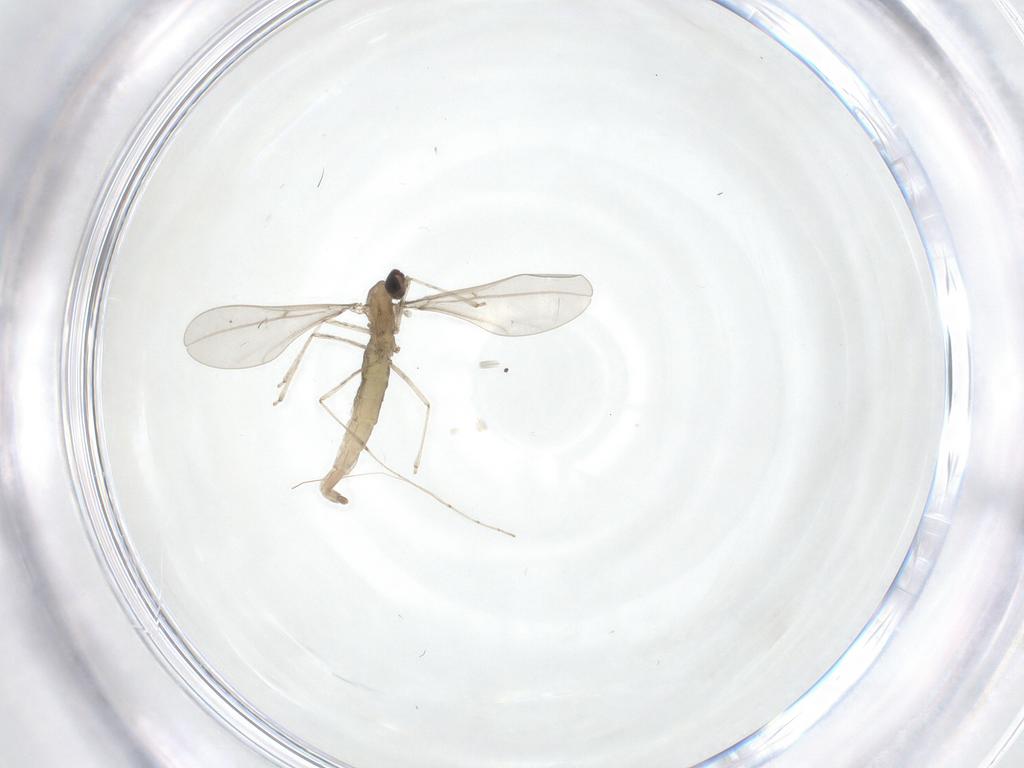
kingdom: Animalia
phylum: Arthropoda
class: Insecta
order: Diptera
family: Cecidomyiidae
